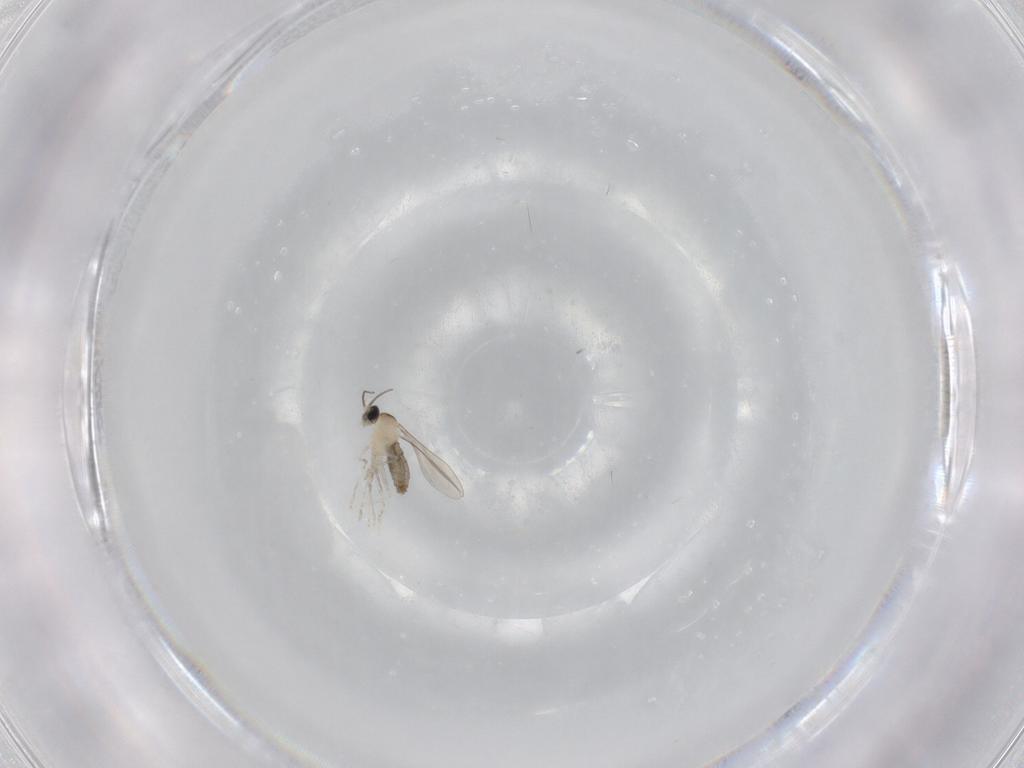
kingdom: Animalia
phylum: Arthropoda
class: Insecta
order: Diptera
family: Cecidomyiidae
